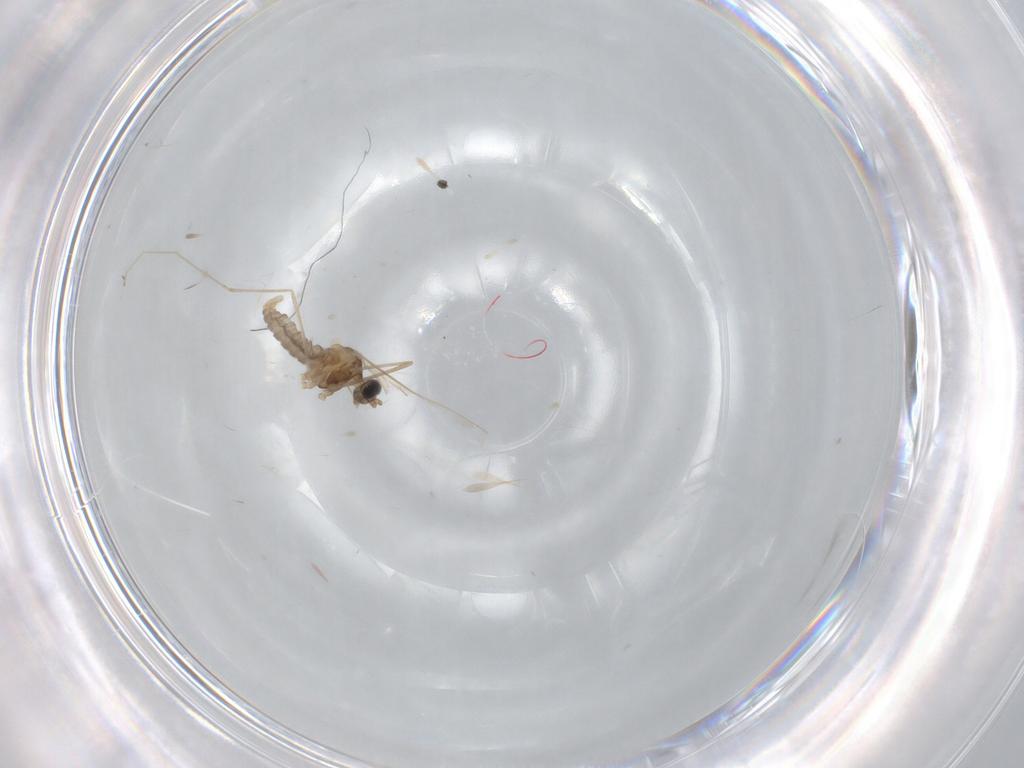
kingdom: Animalia
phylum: Arthropoda
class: Insecta
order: Diptera
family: Cecidomyiidae
